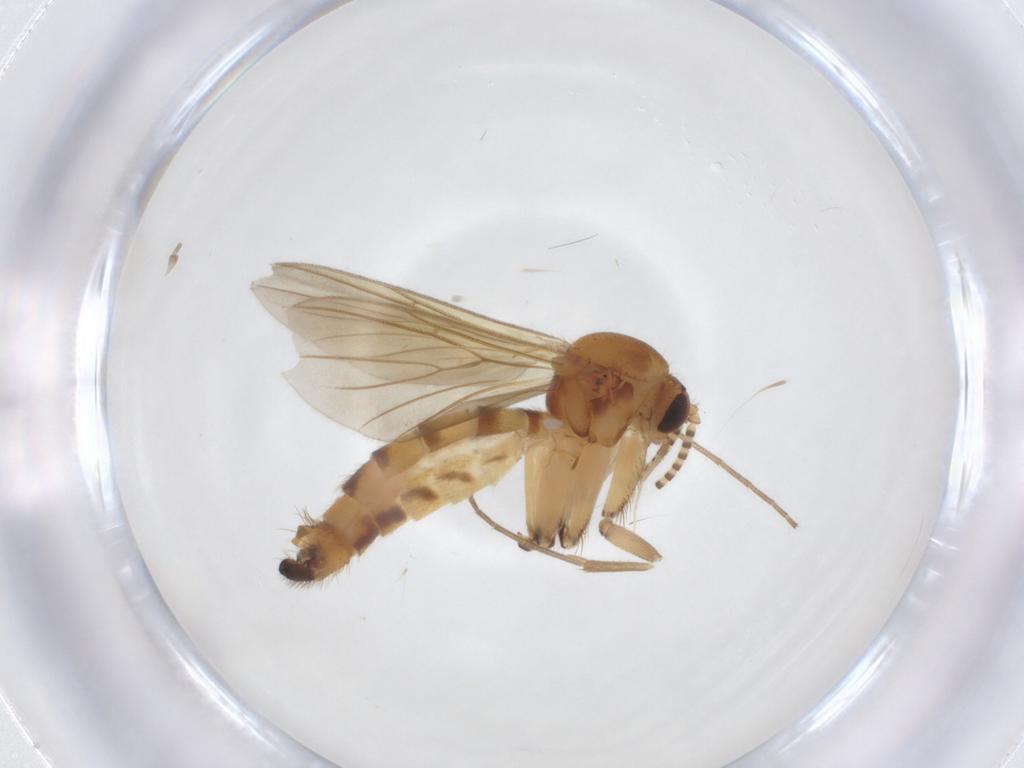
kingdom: Animalia
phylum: Arthropoda
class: Insecta
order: Diptera
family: Mycetophilidae
